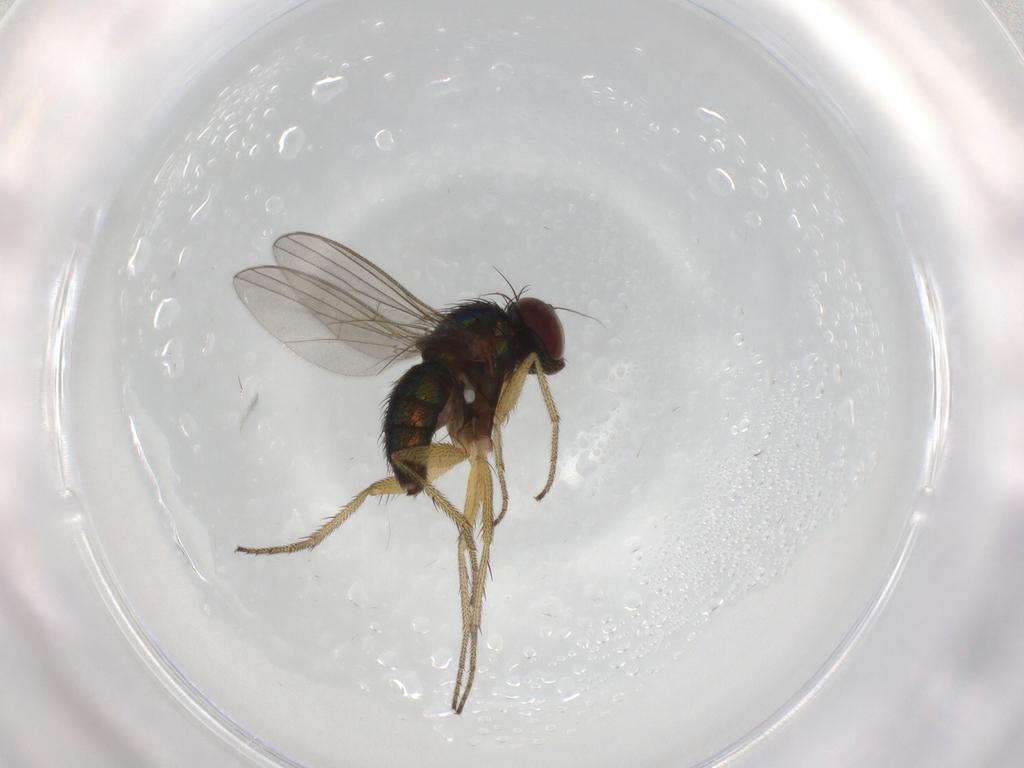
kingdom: Animalia
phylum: Arthropoda
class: Insecta
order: Diptera
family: Dolichopodidae
